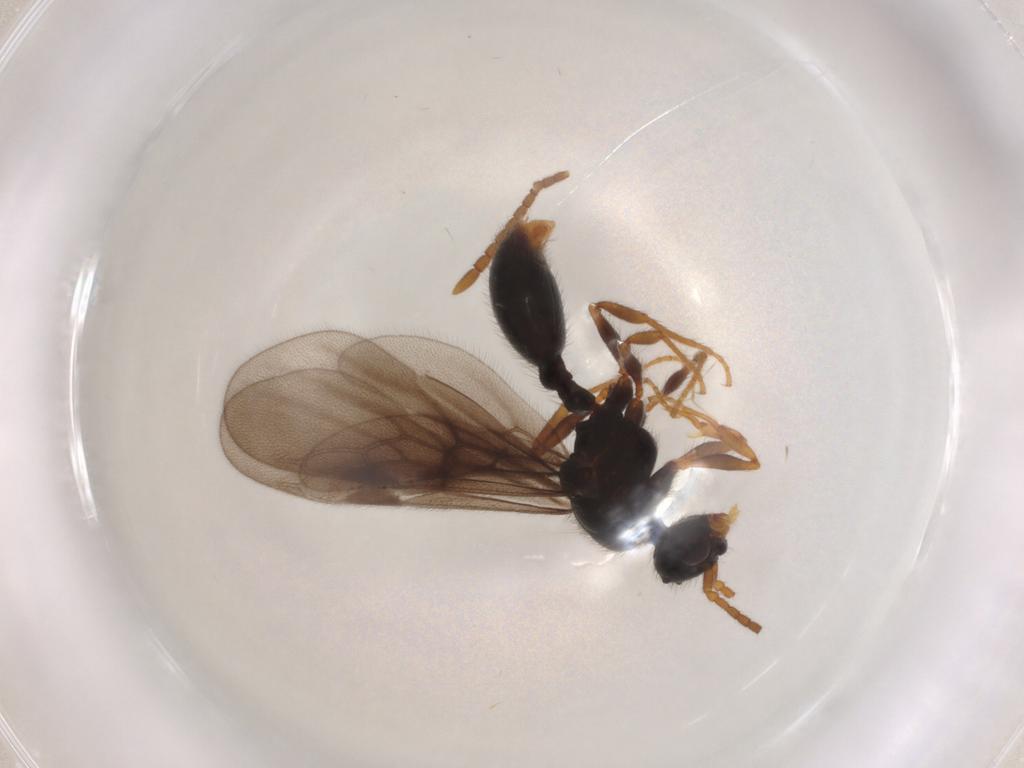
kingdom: Animalia
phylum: Arthropoda
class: Insecta
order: Hymenoptera
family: Formicidae
